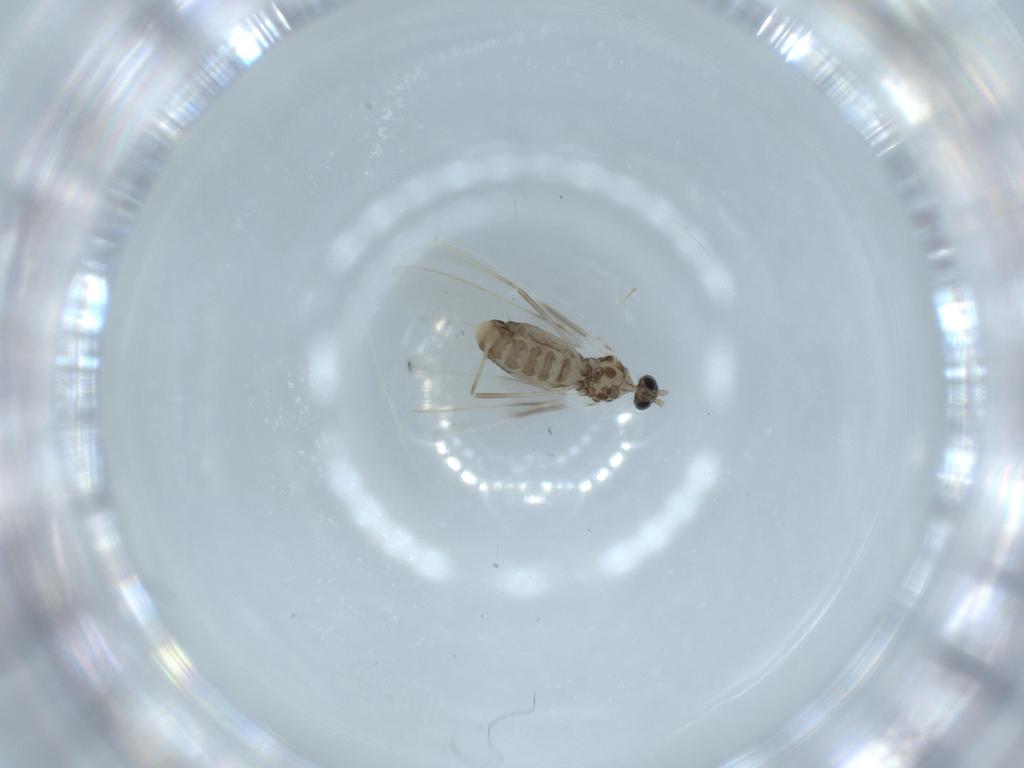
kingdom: Animalia
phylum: Arthropoda
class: Insecta
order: Diptera
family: Cecidomyiidae
